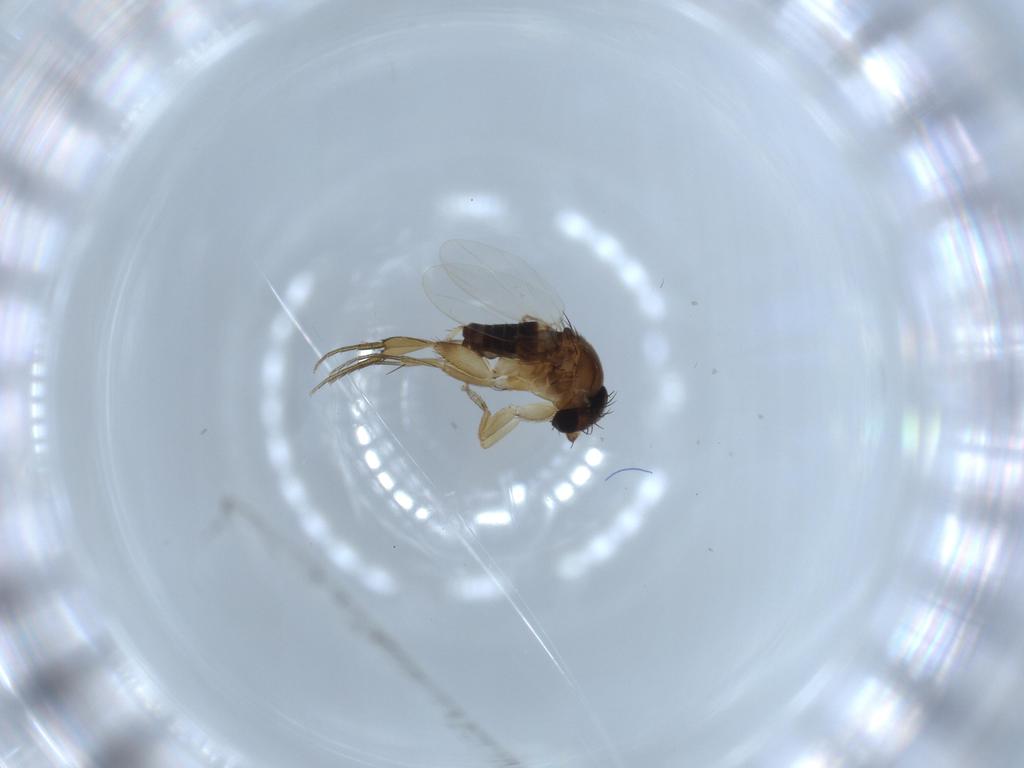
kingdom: Animalia
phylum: Arthropoda
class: Insecta
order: Diptera
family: Phoridae
